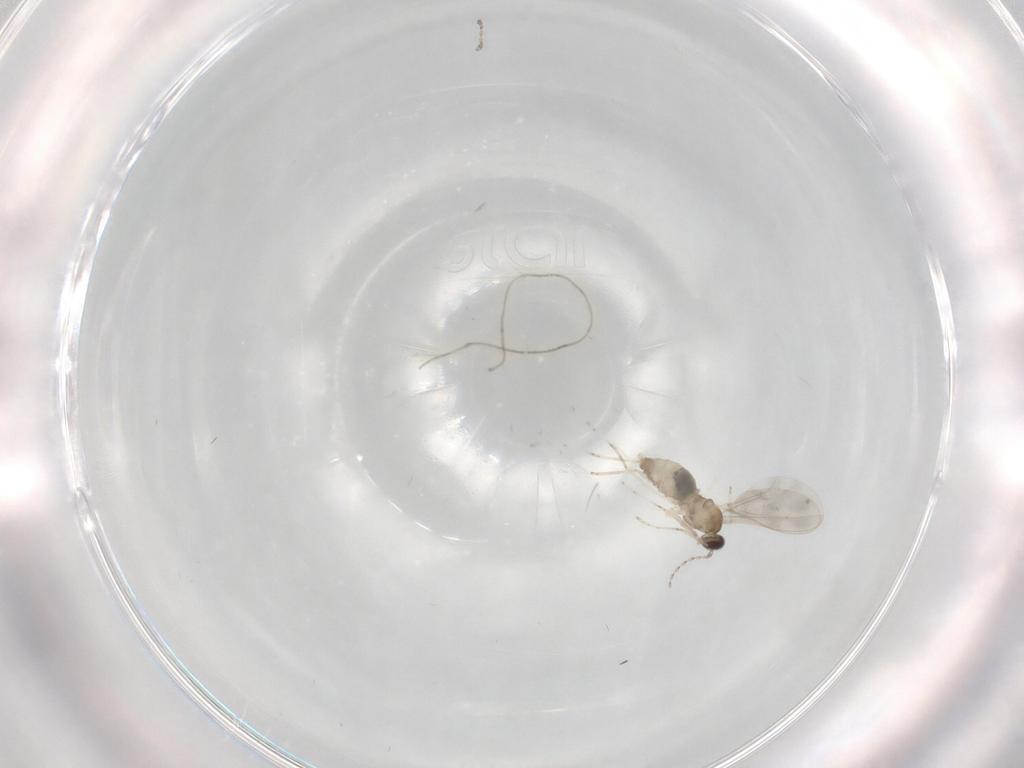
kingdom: Animalia
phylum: Arthropoda
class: Insecta
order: Diptera
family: Cecidomyiidae
